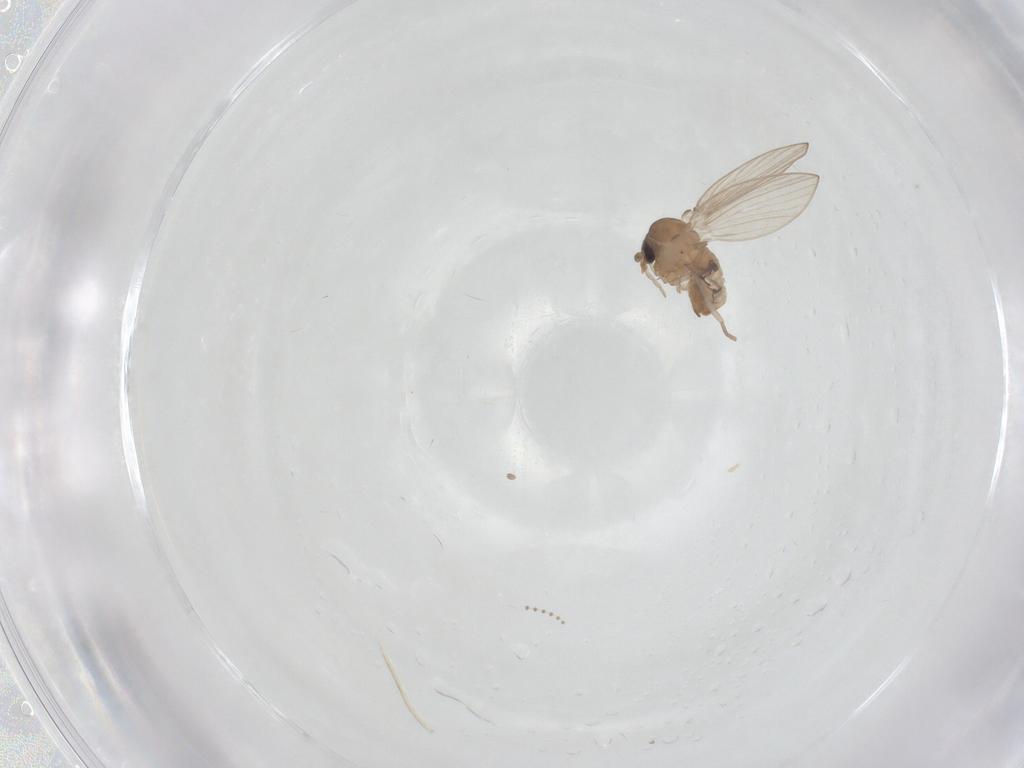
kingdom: Animalia
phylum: Arthropoda
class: Insecta
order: Diptera
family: Psychodidae
